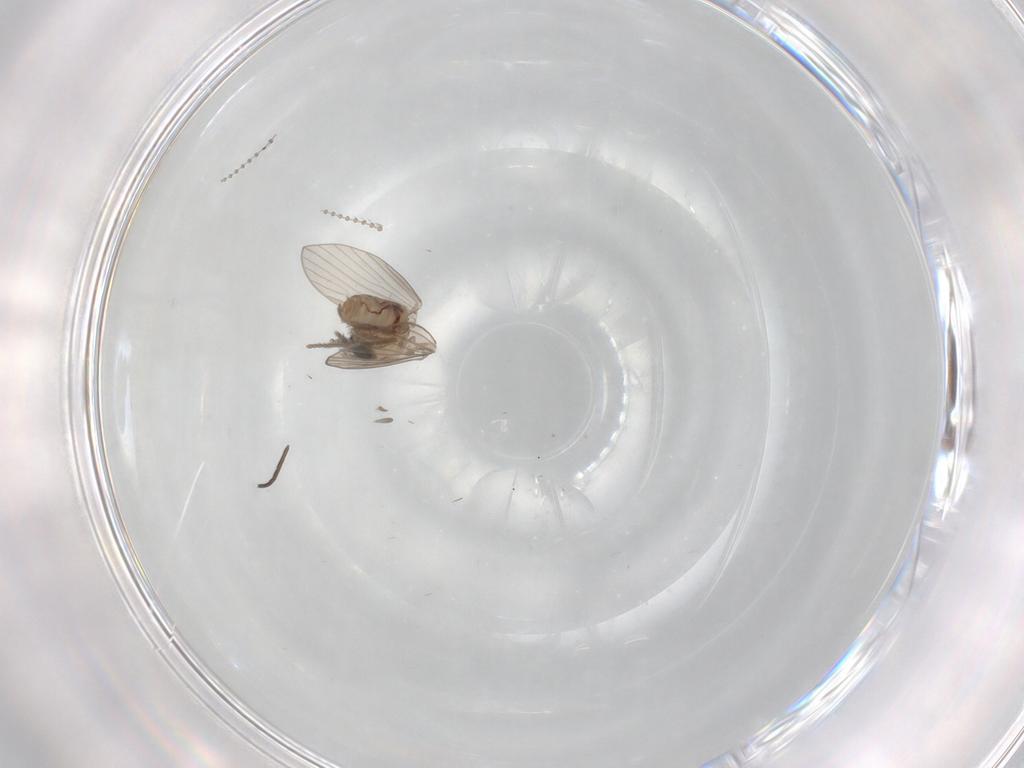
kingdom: Animalia
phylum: Arthropoda
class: Insecta
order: Diptera
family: Psychodidae
